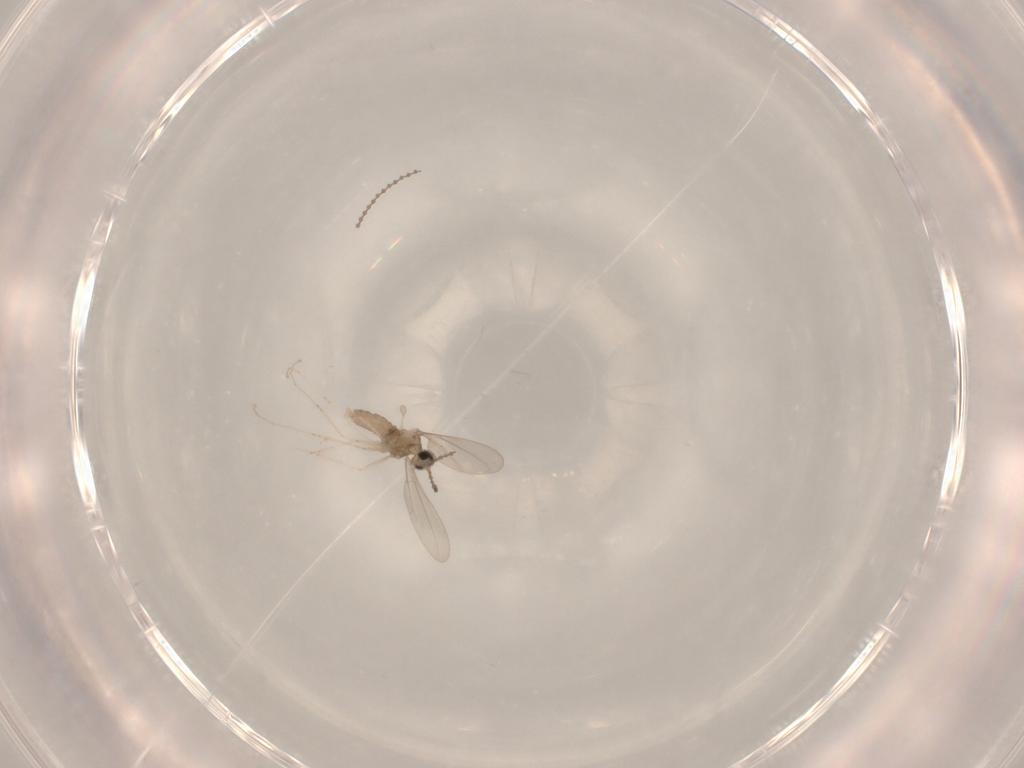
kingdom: Animalia
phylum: Arthropoda
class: Insecta
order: Diptera
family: Cecidomyiidae
